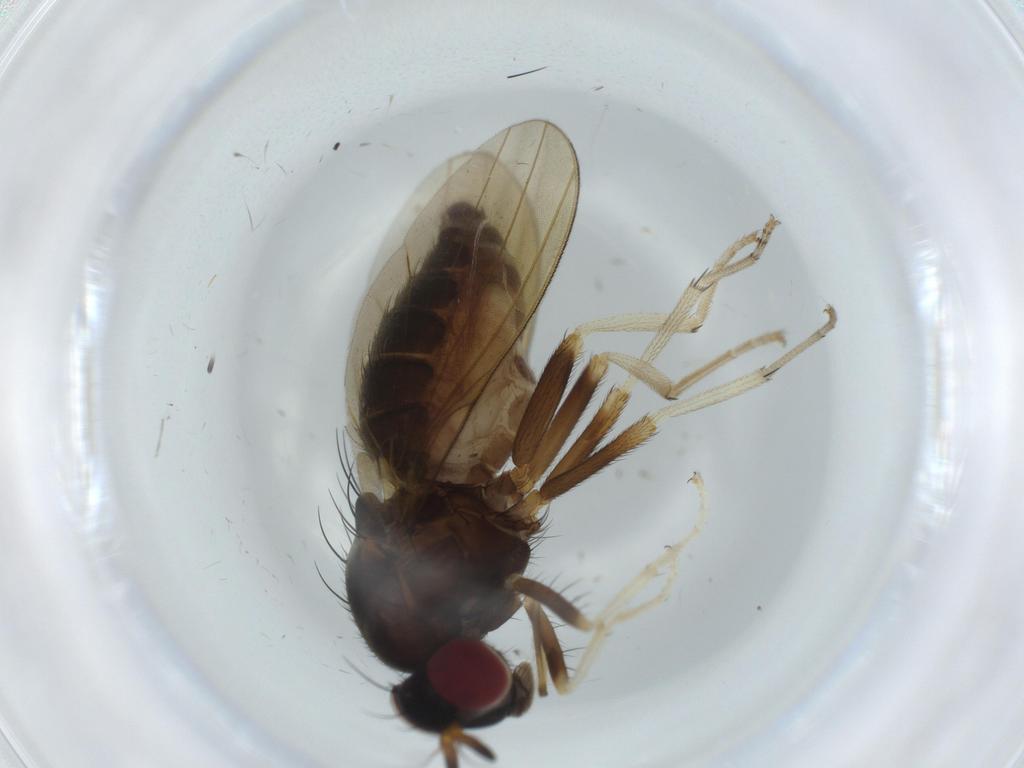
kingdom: Animalia
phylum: Arthropoda
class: Insecta
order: Diptera
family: Chironomidae
